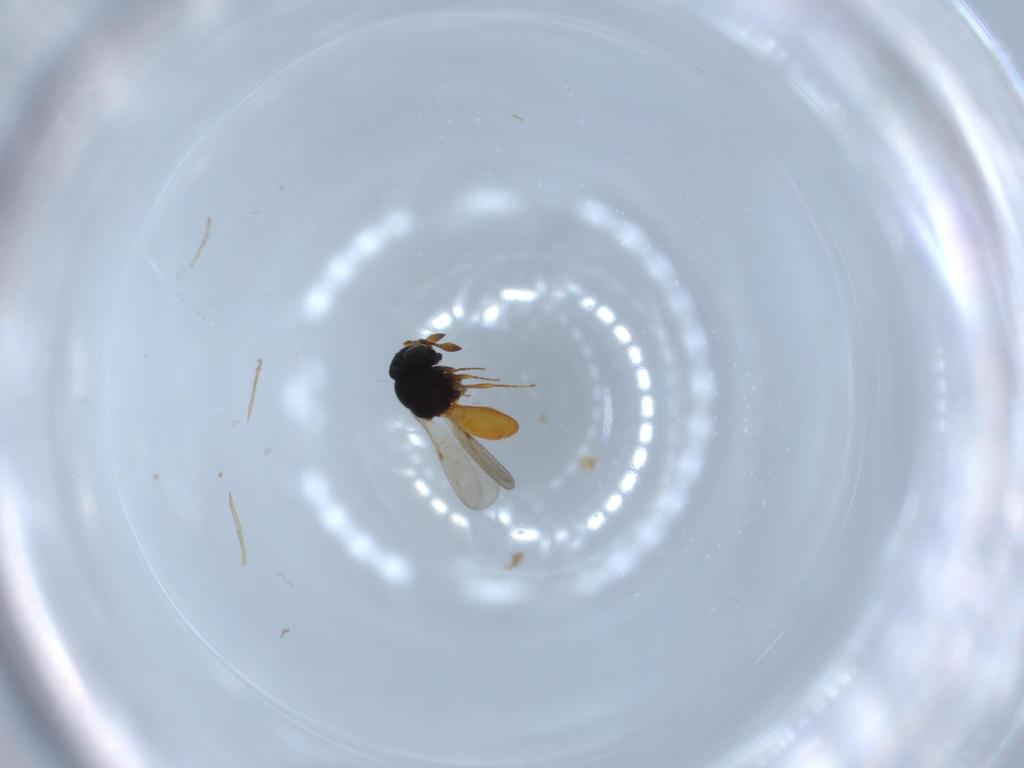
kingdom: Animalia
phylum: Arthropoda
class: Insecta
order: Hymenoptera
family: Scelionidae
